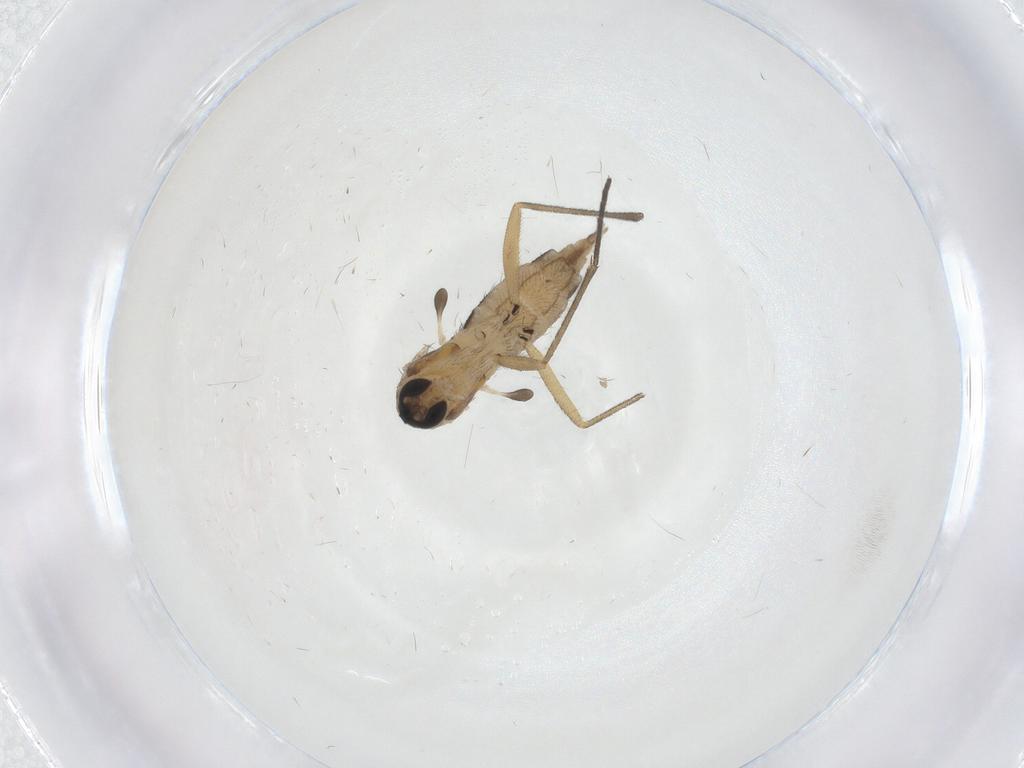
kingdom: Animalia
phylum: Arthropoda
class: Insecta
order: Diptera
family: Sciaridae
